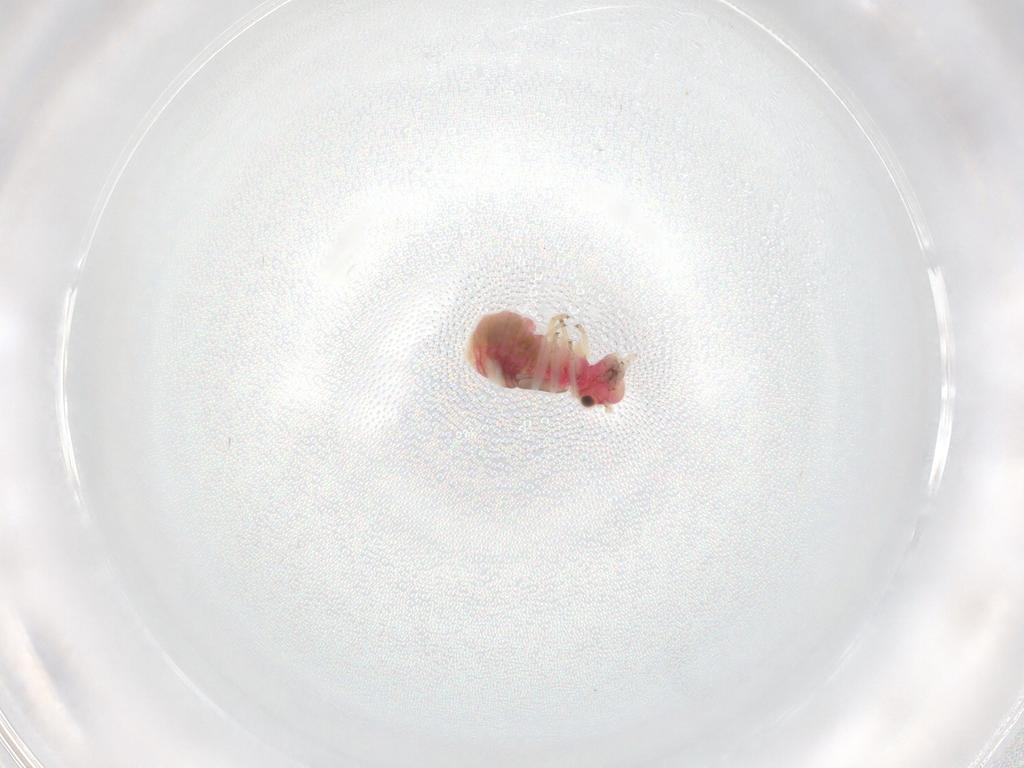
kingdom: Animalia
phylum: Arthropoda
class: Insecta
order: Psocodea
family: Caeciliusidae
